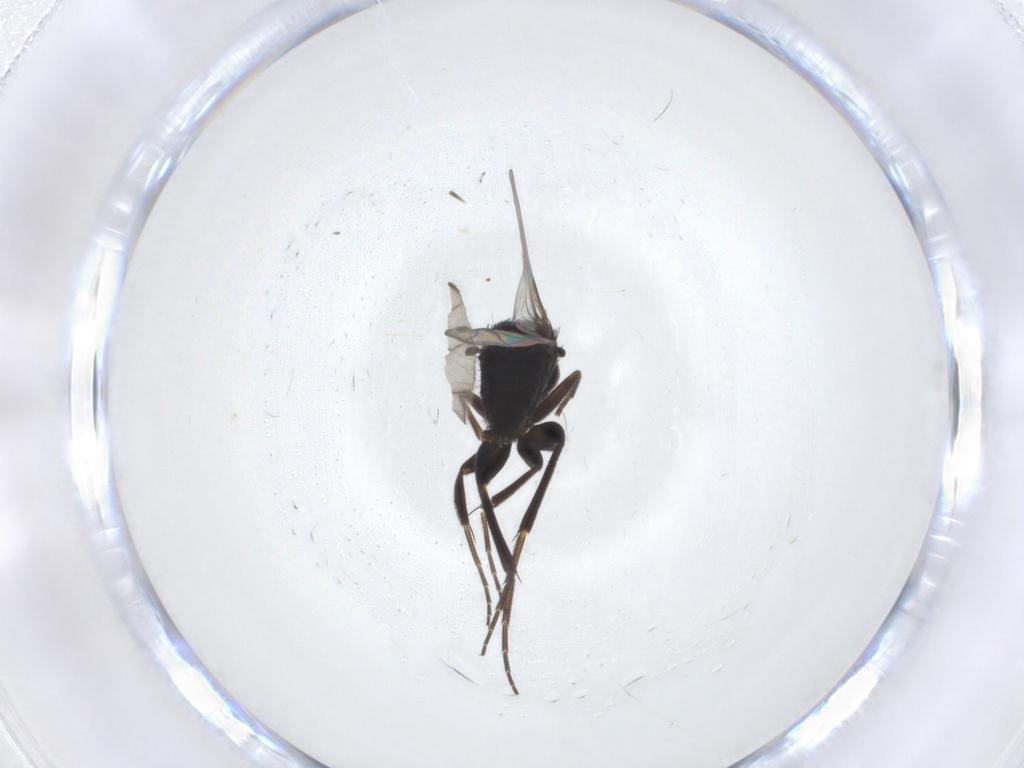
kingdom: Animalia
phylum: Arthropoda
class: Insecta
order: Diptera
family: Phoridae
